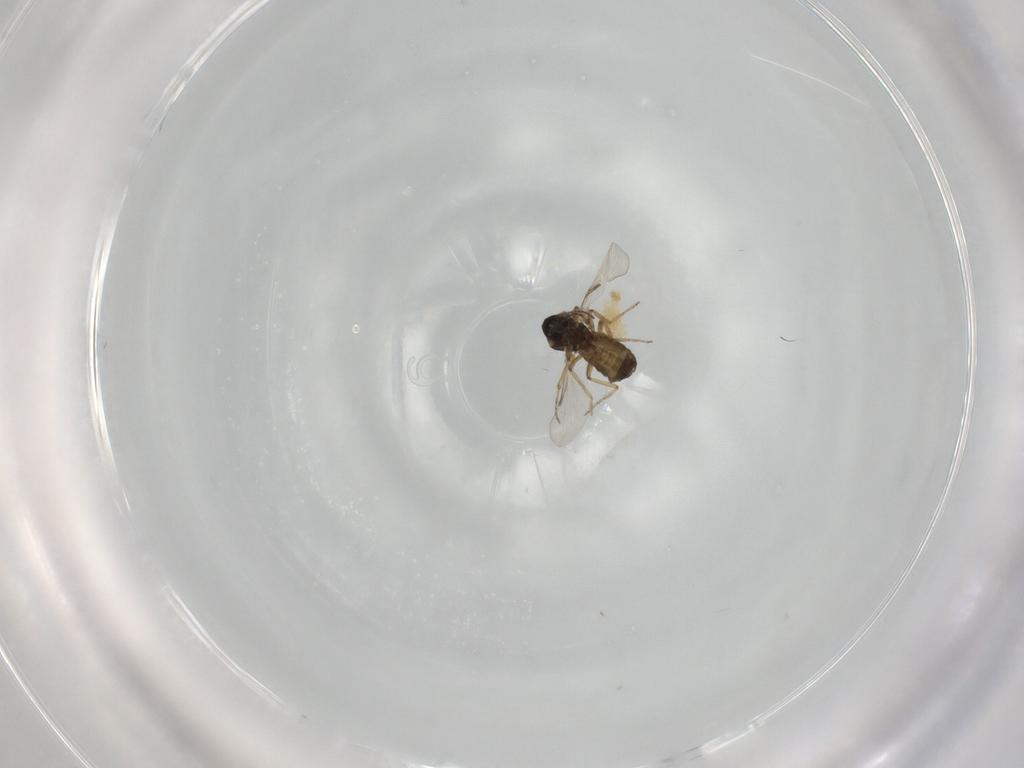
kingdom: Animalia
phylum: Arthropoda
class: Insecta
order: Diptera
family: Ceratopogonidae
